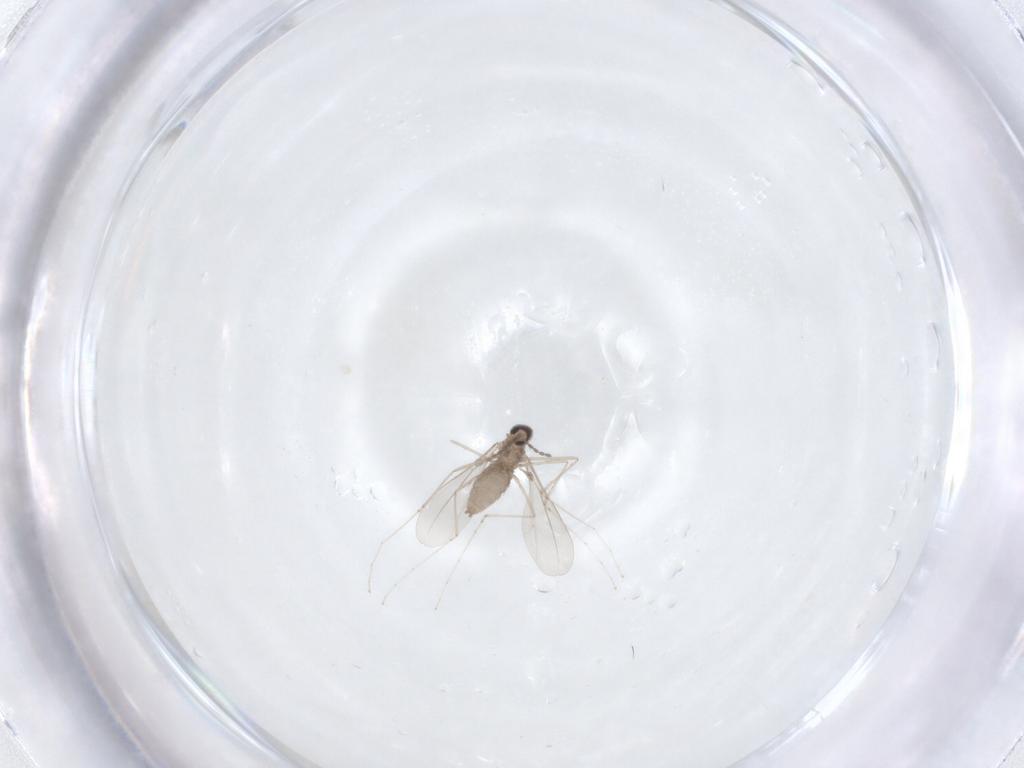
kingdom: Animalia
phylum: Arthropoda
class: Insecta
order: Diptera
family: Cecidomyiidae
